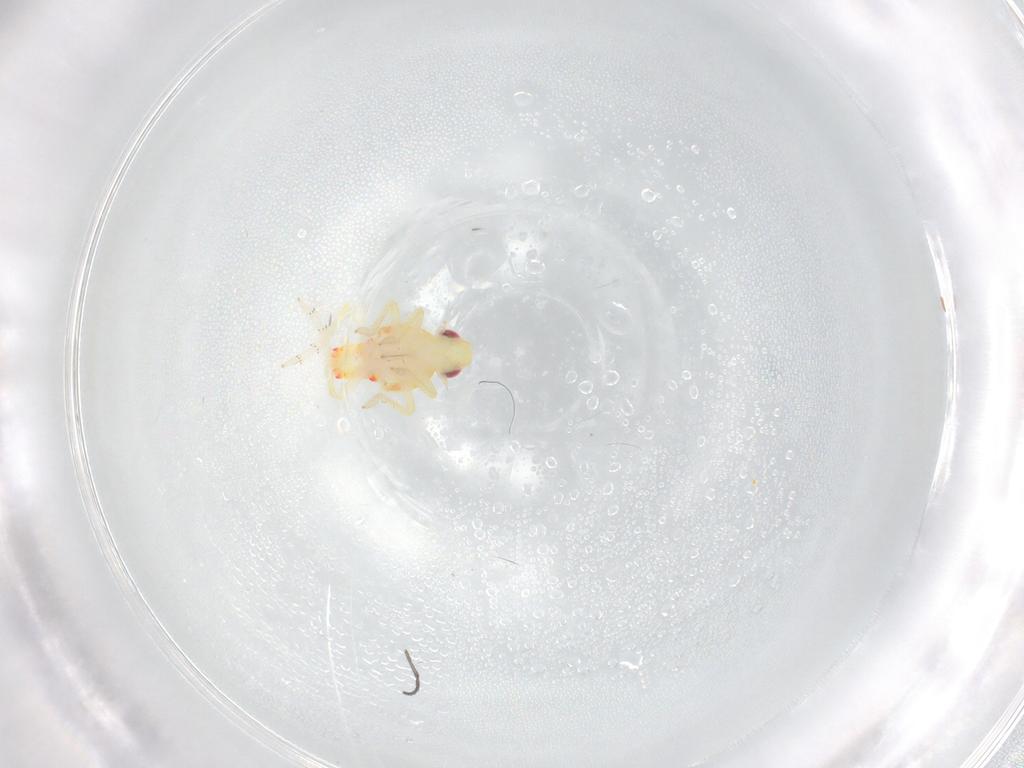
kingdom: Animalia
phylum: Arthropoda
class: Insecta
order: Hemiptera
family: Tropiduchidae
